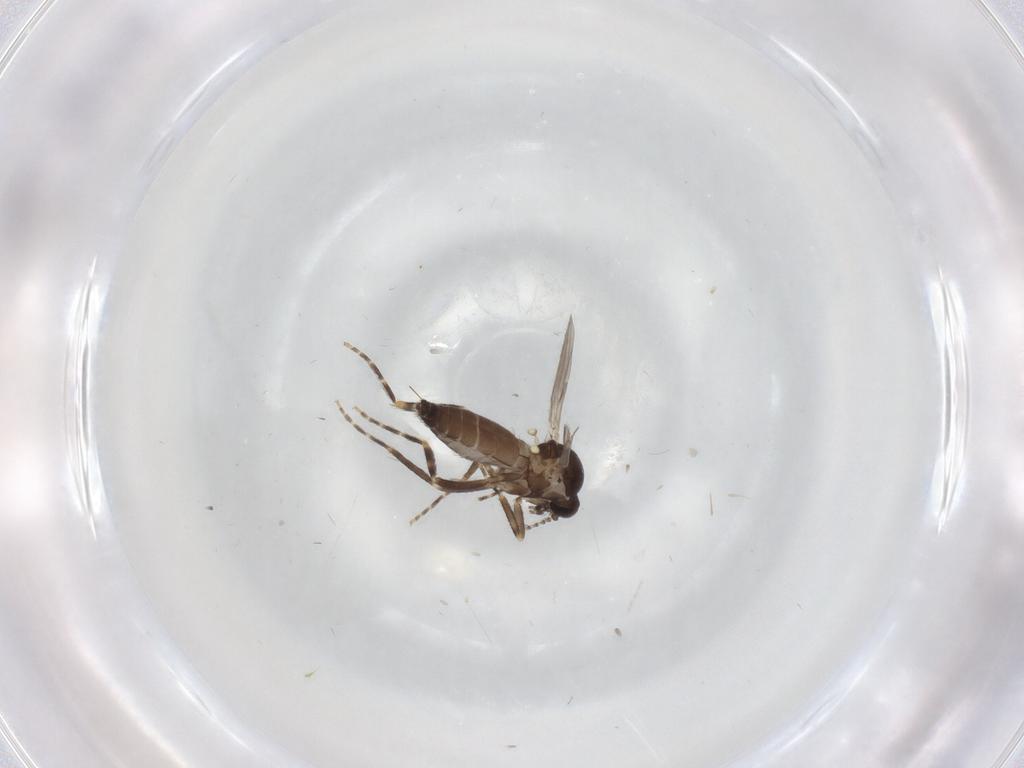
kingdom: Animalia
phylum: Arthropoda
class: Insecta
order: Diptera
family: Ceratopogonidae
